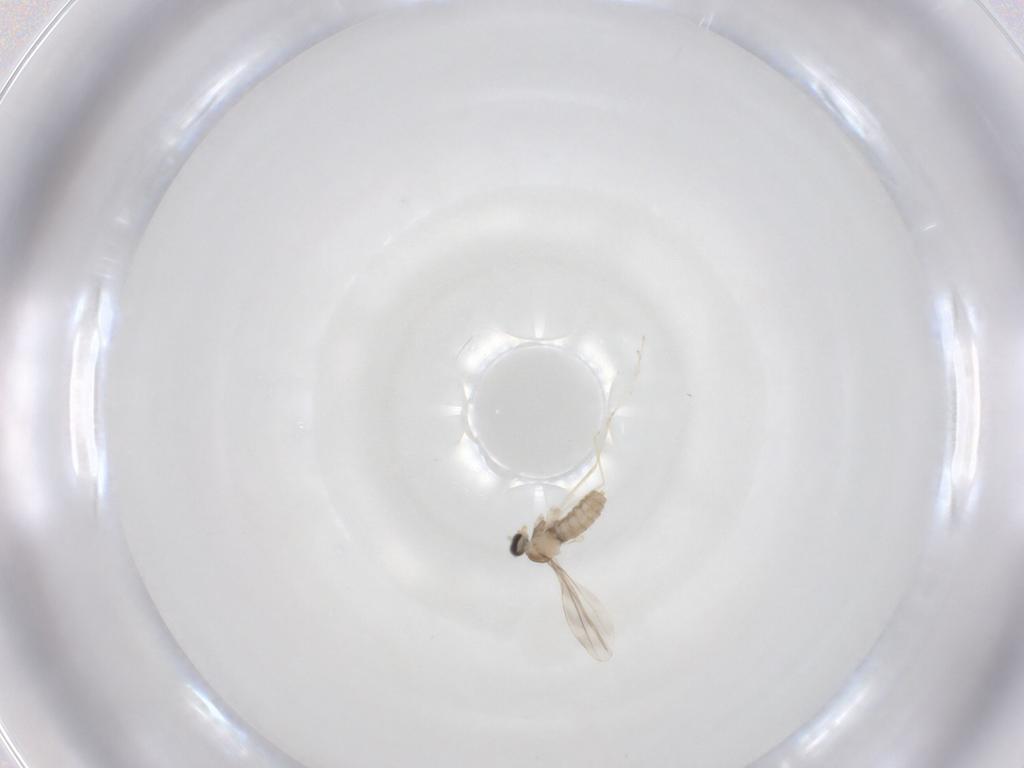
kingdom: Animalia
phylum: Arthropoda
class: Insecta
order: Diptera
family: Cecidomyiidae
